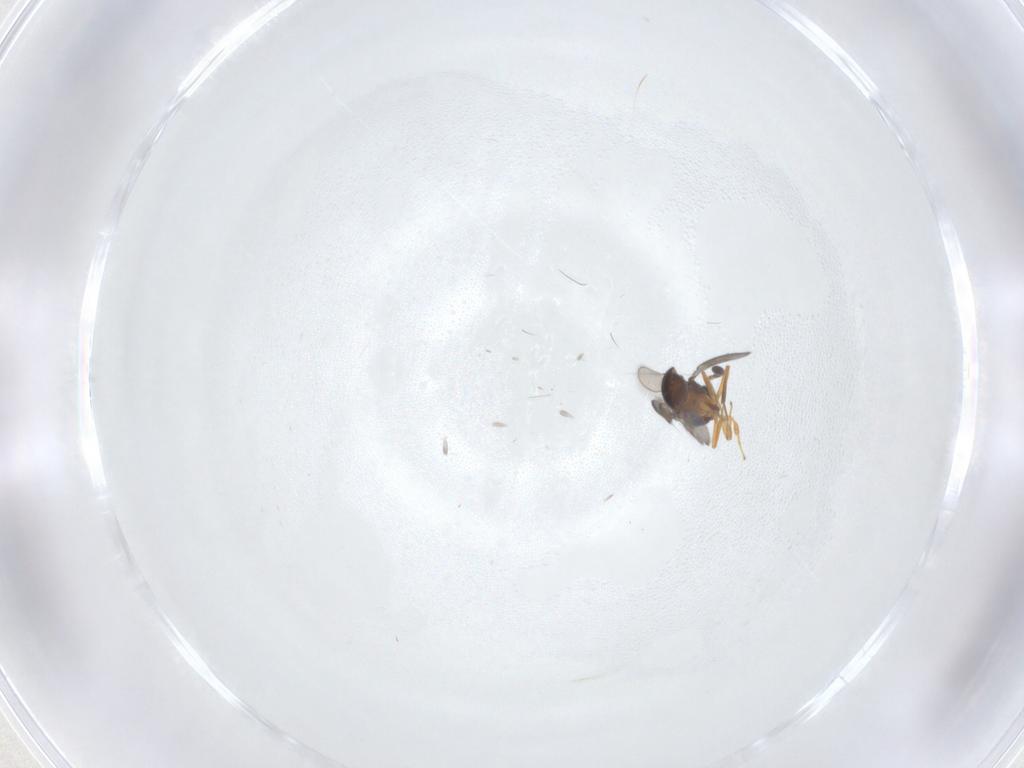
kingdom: Animalia
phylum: Arthropoda
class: Insecta
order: Hymenoptera
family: Scelionidae
